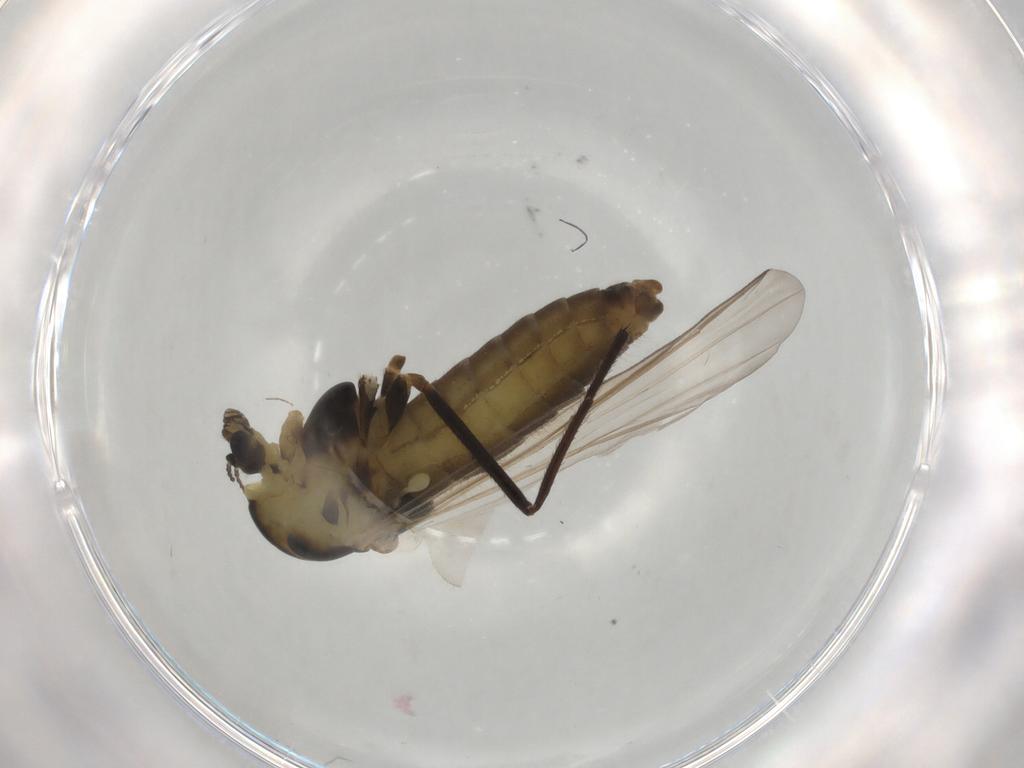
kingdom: Animalia
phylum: Arthropoda
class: Insecta
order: Diptera
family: Chironomidae
